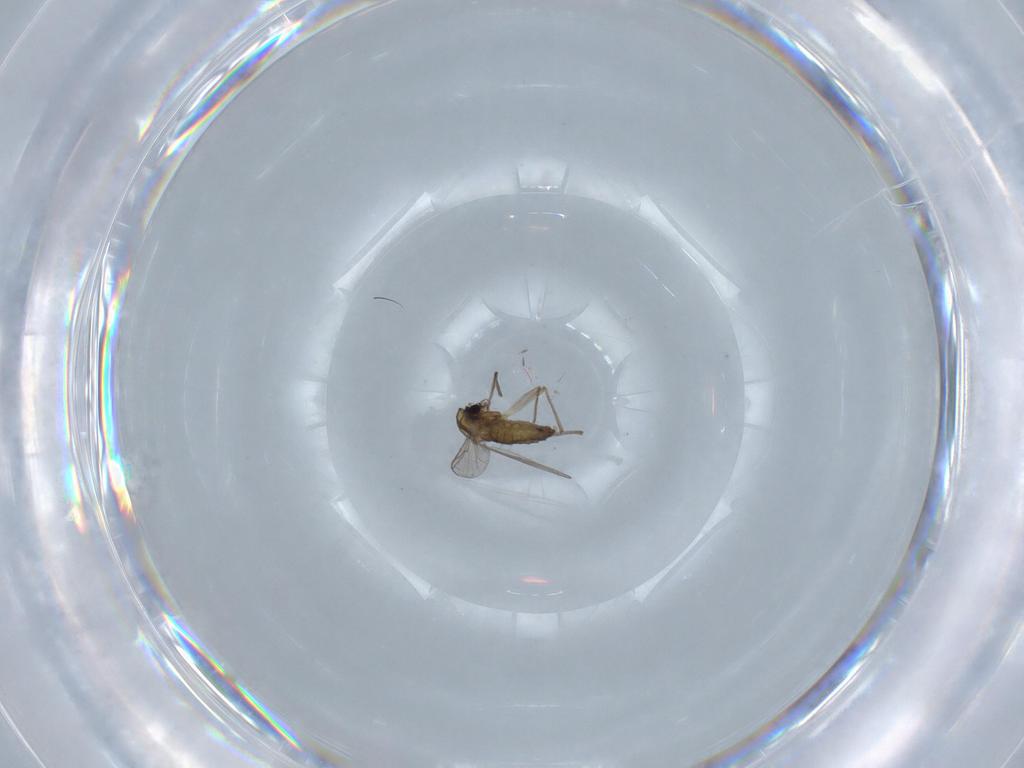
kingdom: Animalia
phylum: Arthropoda
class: Insecta
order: Diptera
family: Chironomidae
